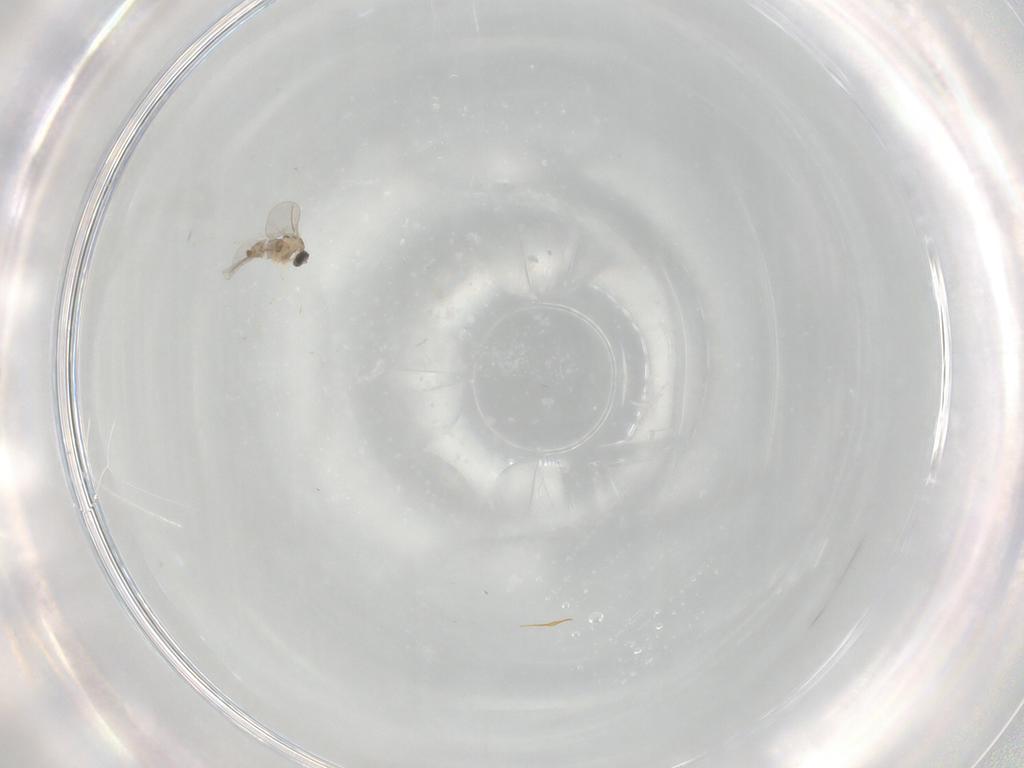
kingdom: Animalia
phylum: Arthropoda
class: Insecta
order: Diptera
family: Cecidomyiidae
